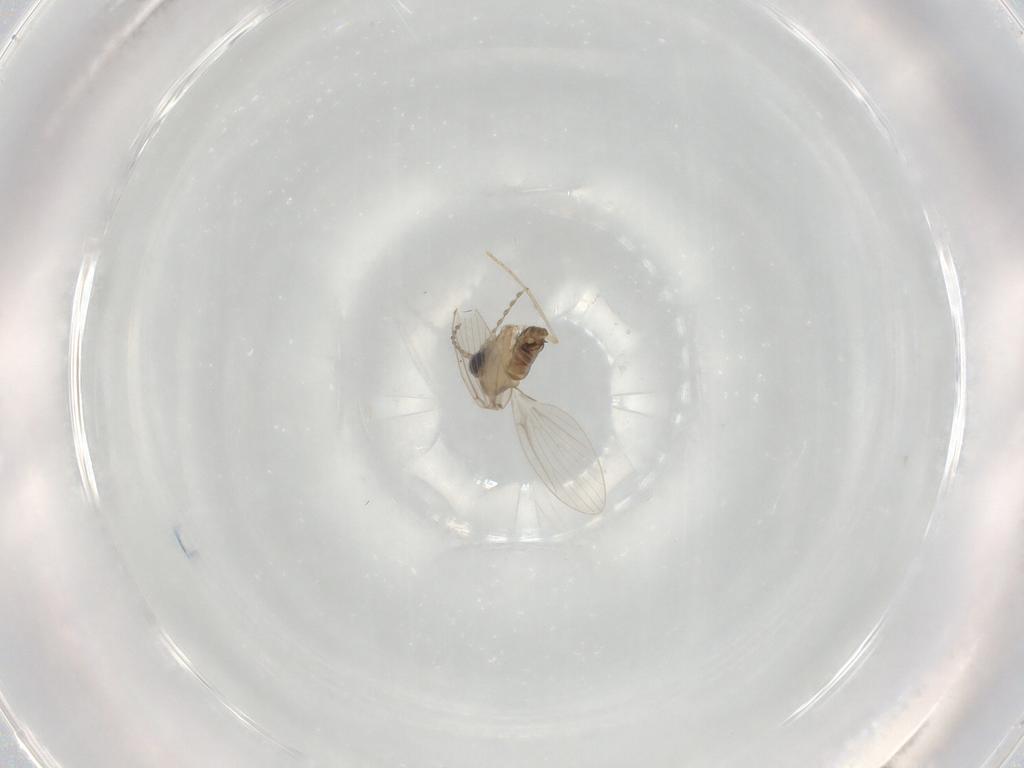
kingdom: Animalia
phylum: Arthropoda
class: Insecta
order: Diptera
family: Psychodidae
